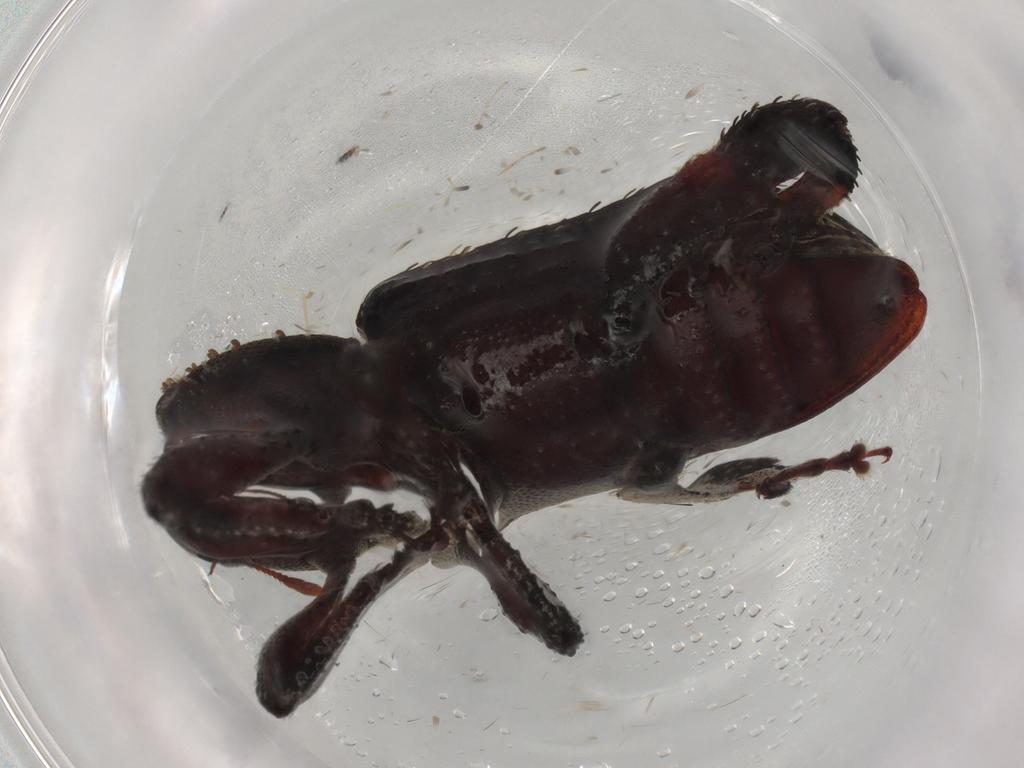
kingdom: Animalia
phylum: Arthropoda
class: Insecta
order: Coleoptera
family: Curculionidae
